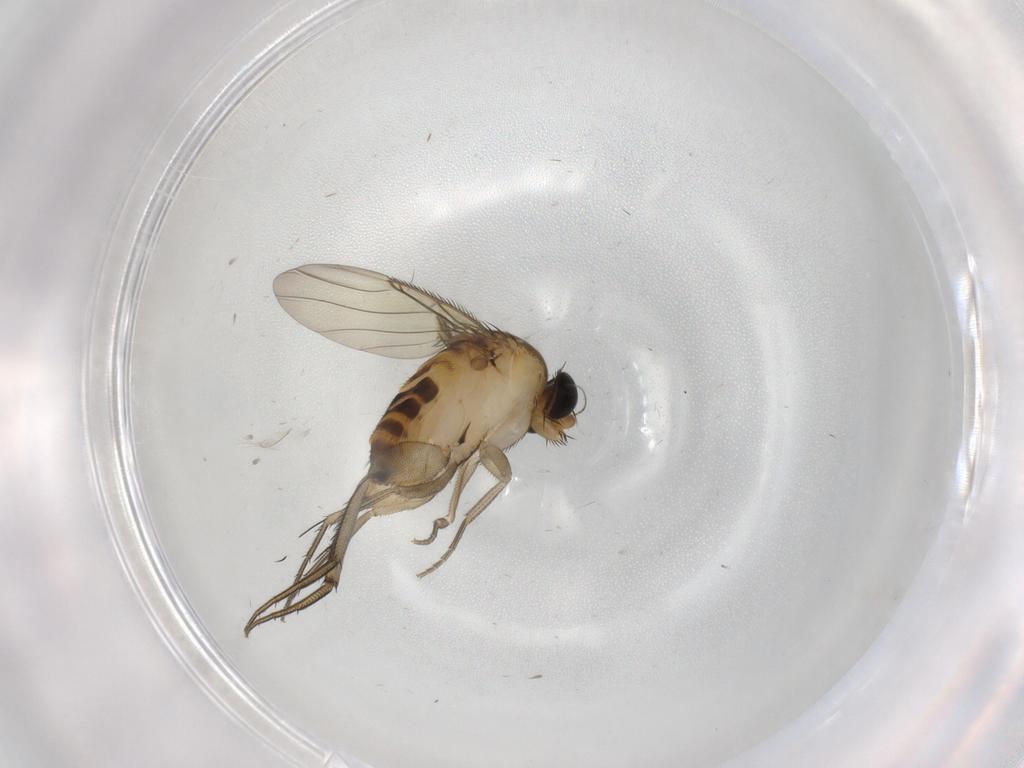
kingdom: Animalia
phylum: Arthropoda
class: Insecta
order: Diptera
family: Phoridae
